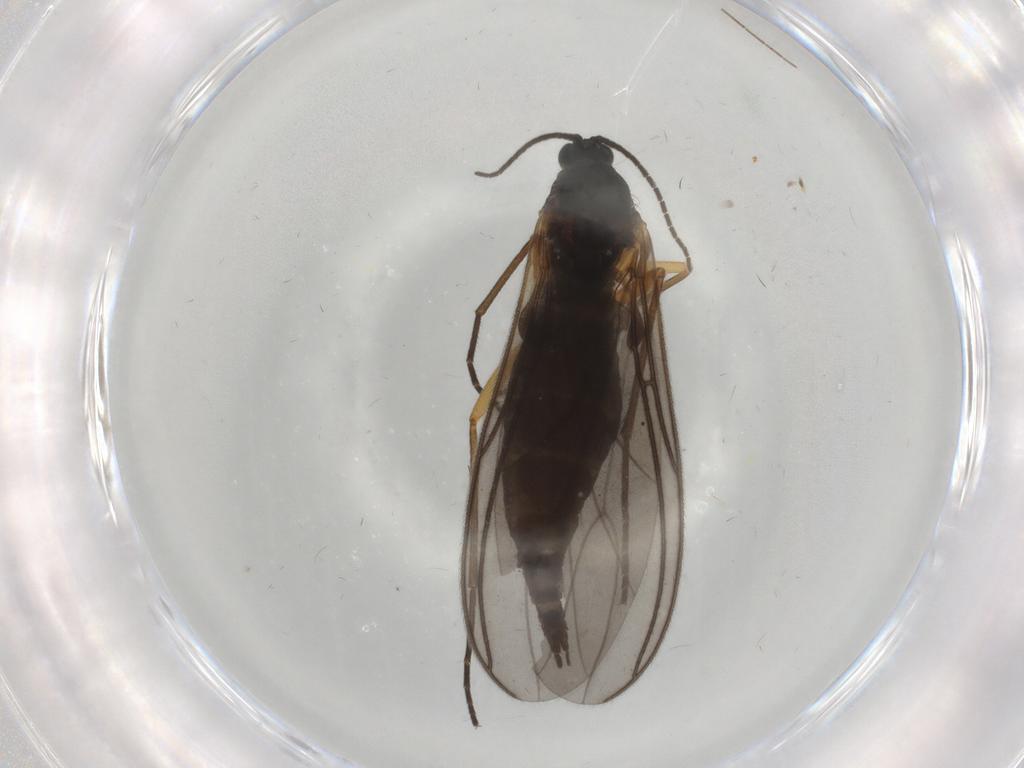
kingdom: Animalia
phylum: Arthropoda
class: Insecta
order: Diptera
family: Sciaridae
